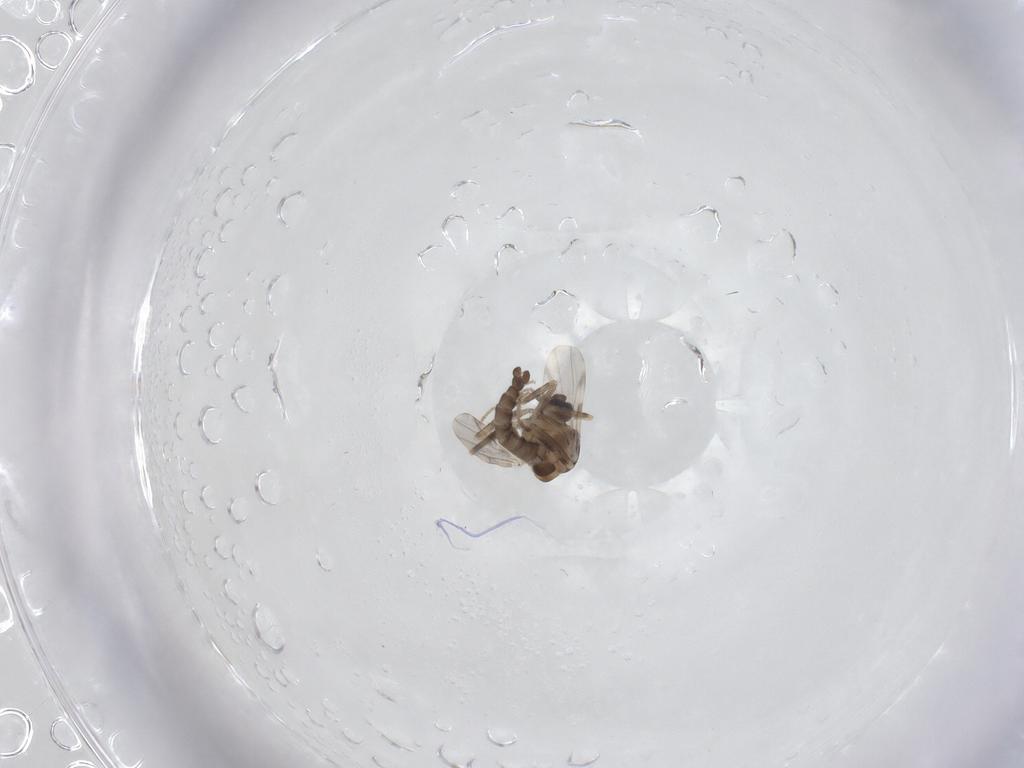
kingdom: Animalia
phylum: Arthropoda
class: Insecta
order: Diptera
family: Ceratopogonidae
